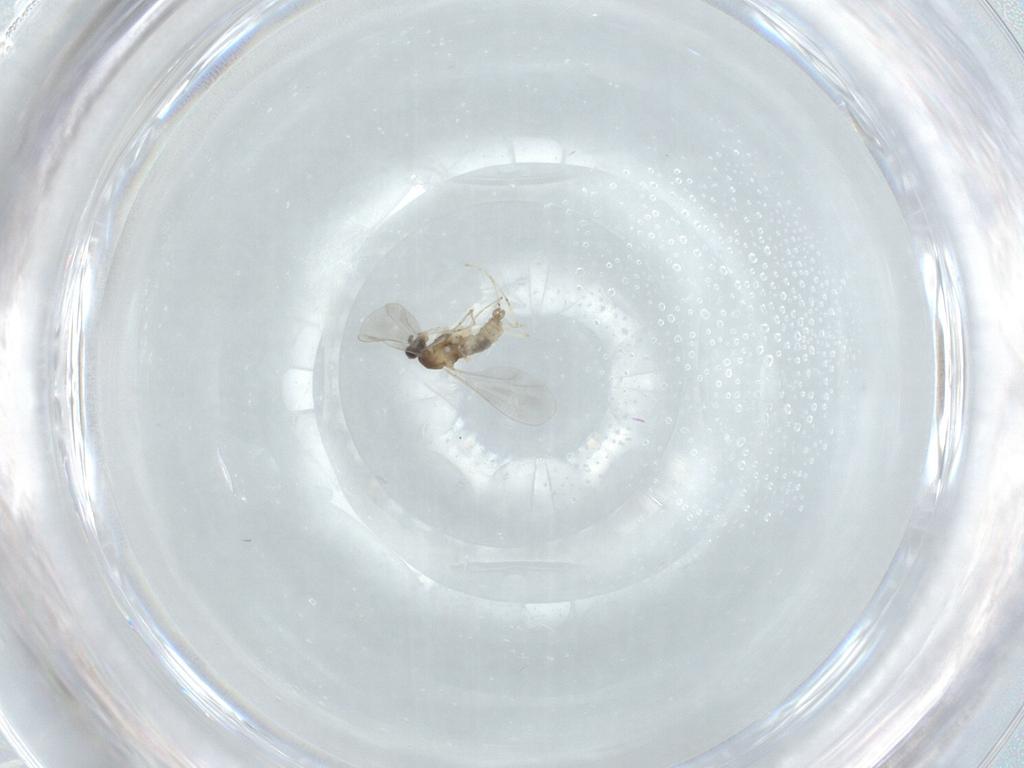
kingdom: Animalia
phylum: Arthropoda
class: Insecta
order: Diptera
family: Cecidomyiidae
